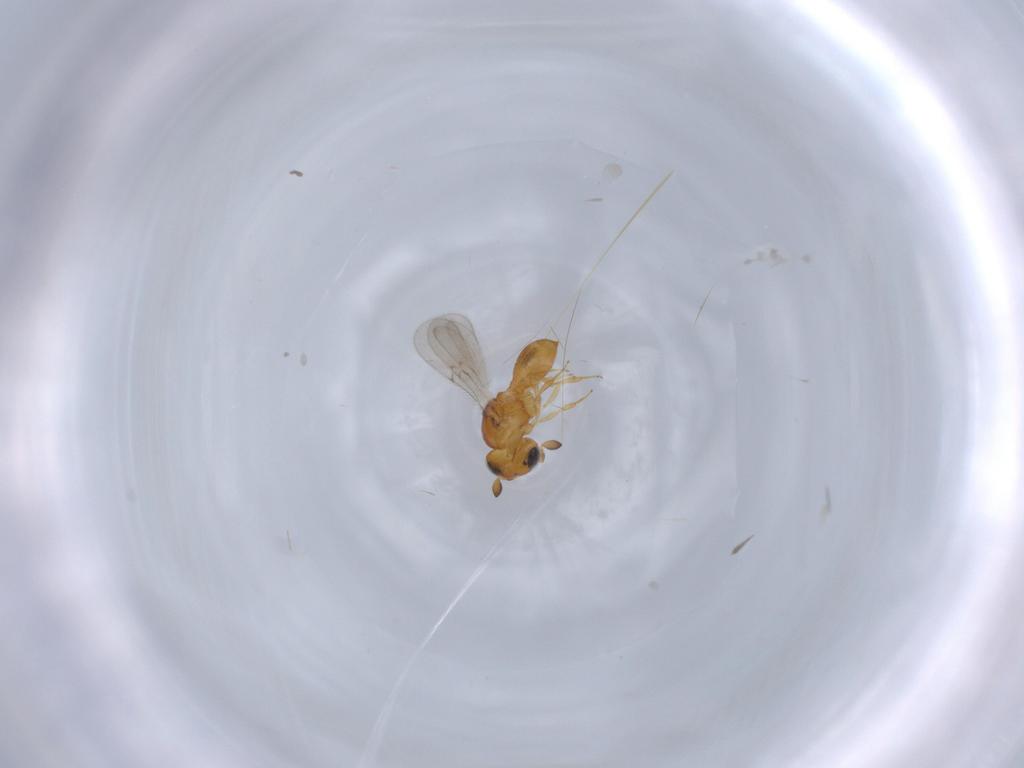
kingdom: Animalia
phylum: Arthropoda
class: Insecta
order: Hymenoptera
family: Scelionidae
